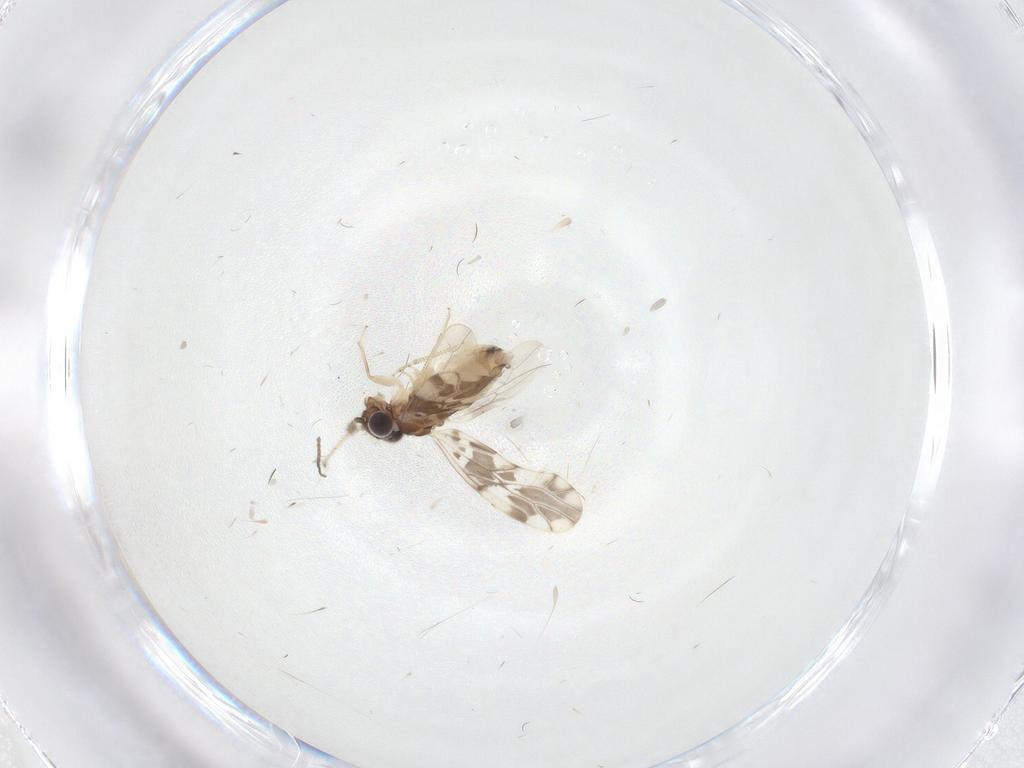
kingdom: Animalia
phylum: Arthropoda
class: Insecta
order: Psocodea
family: Ectopsocidae
